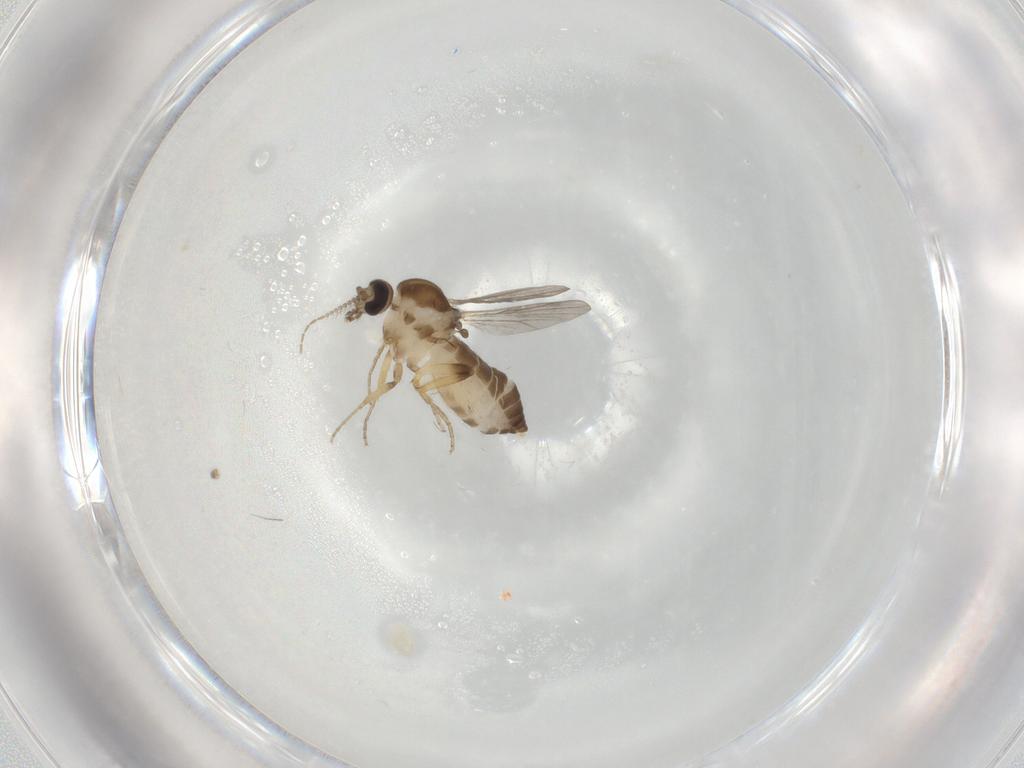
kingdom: Animalia
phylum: Arthropoda
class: Insecta
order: Diptera
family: Ceratopogonidae
